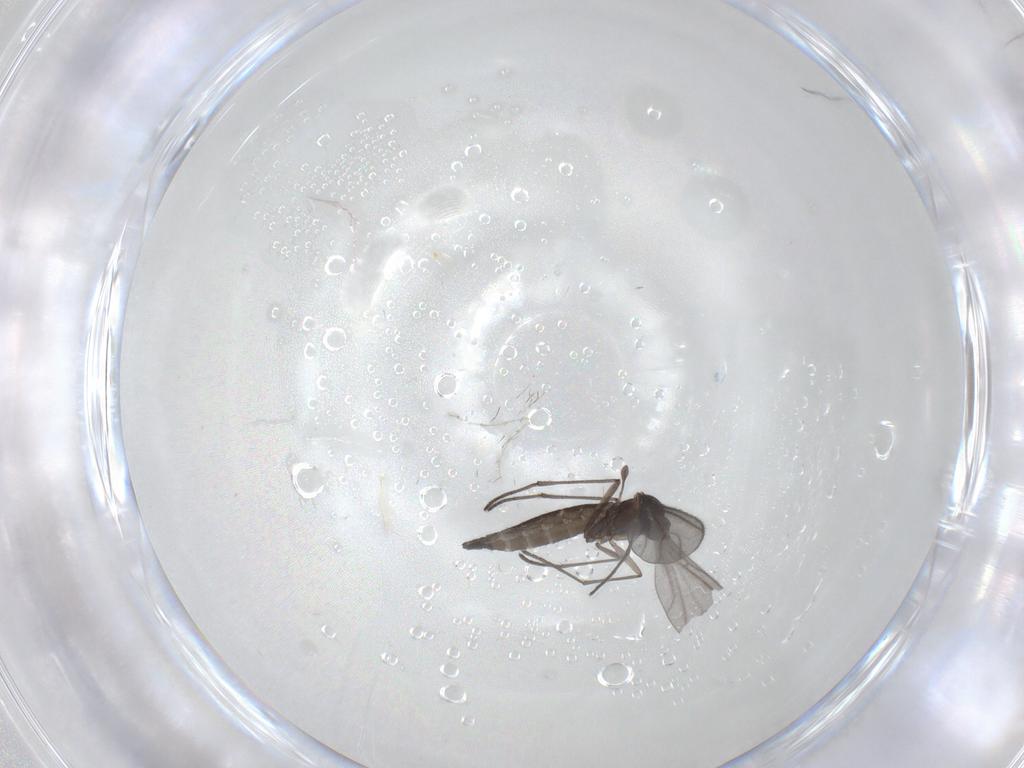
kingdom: Animalia
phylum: Arthropoda
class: Insecta
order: Diptera
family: Sciaridae
